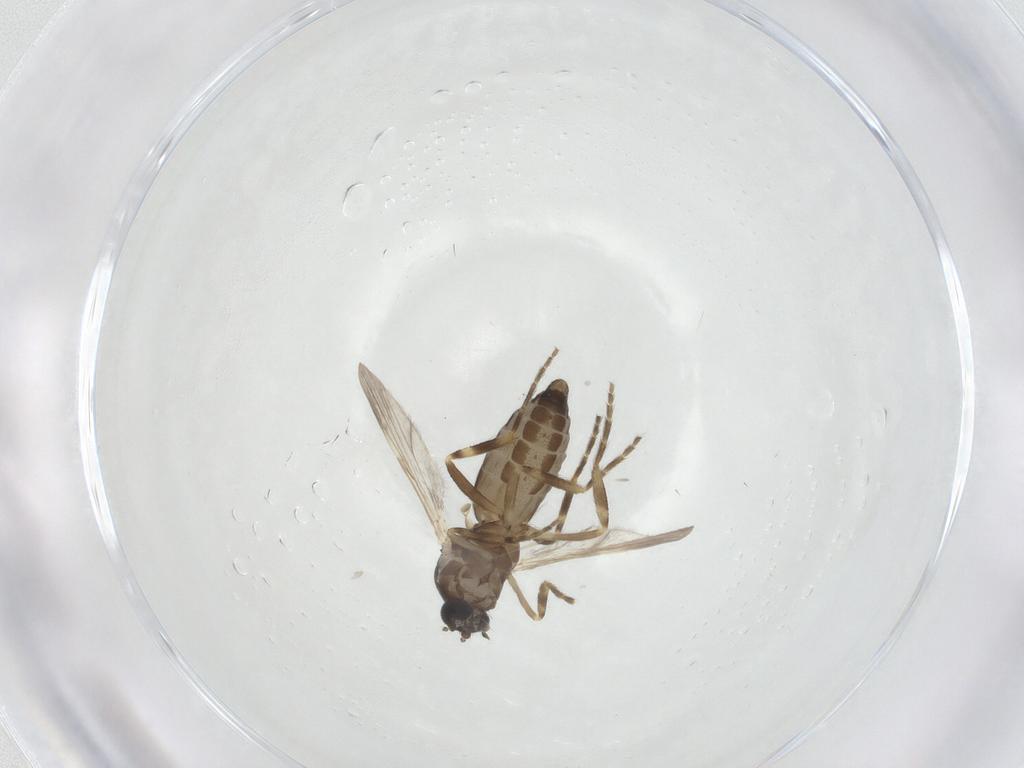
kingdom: Animalia
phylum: Arthropoda
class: Insecta
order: Diptera
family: Ceratopogonidae
